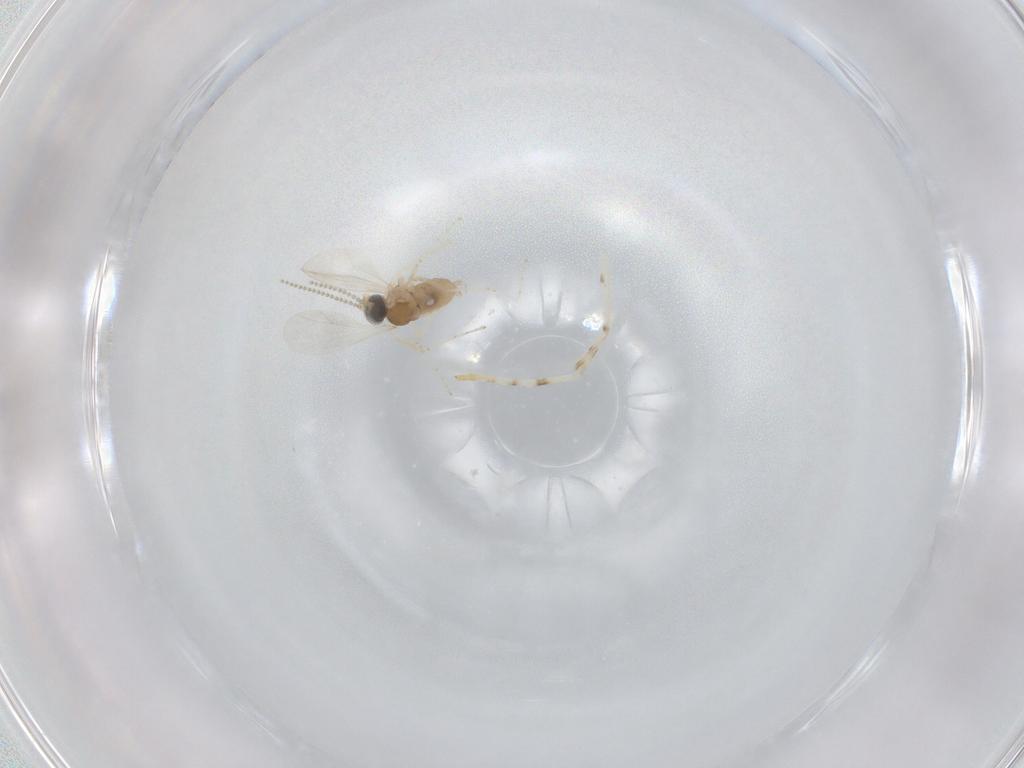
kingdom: Animalia
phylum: Arthropoda
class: Insecta
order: Diptera
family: Cecidomyiidae
